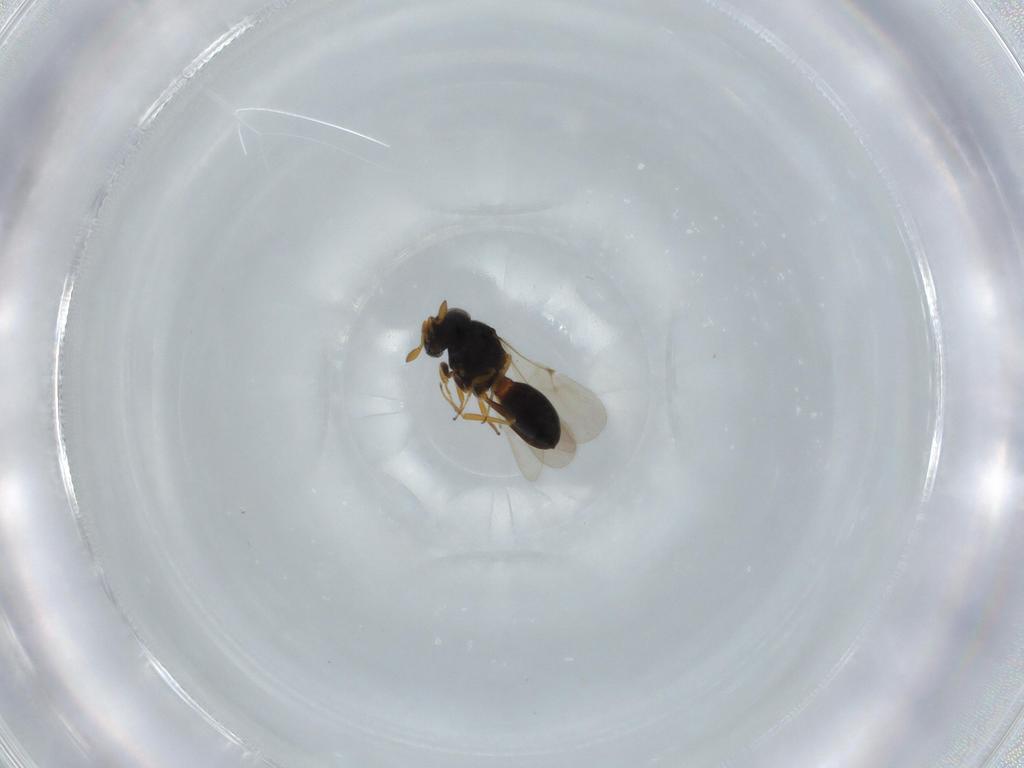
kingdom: Animalia
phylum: Arthropoda
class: Insecta
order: Hymenoptera
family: Scelionidae
